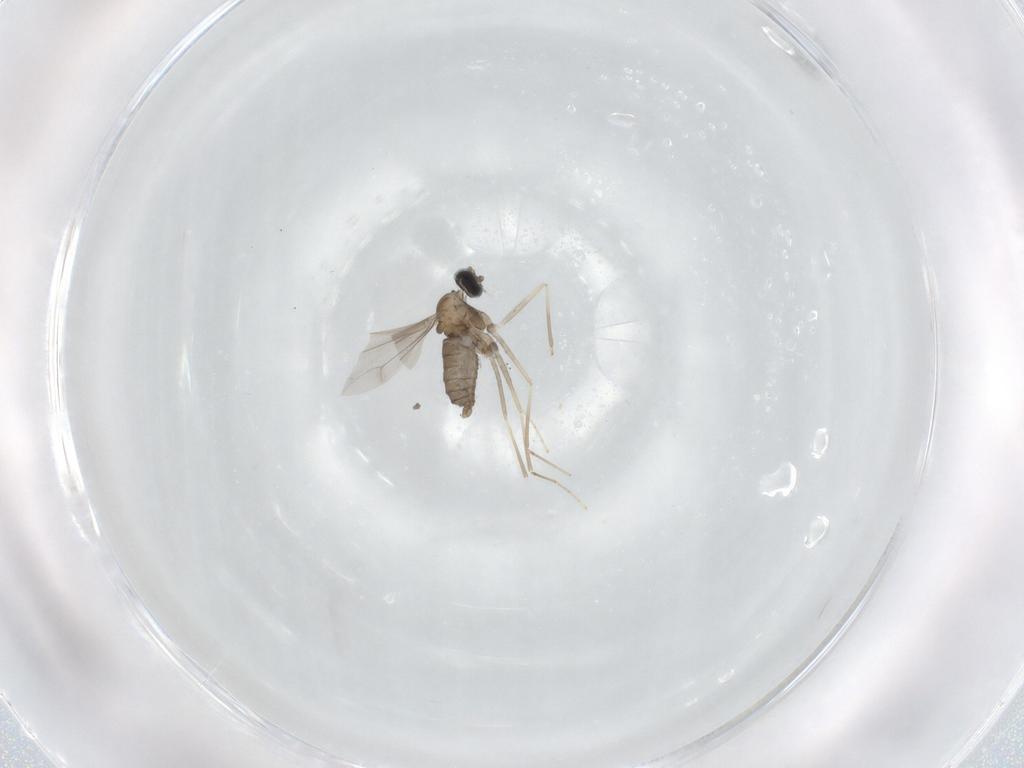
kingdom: Animalia
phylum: Arthropoda
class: Insecta
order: Diptera
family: Cecidomyiidae
